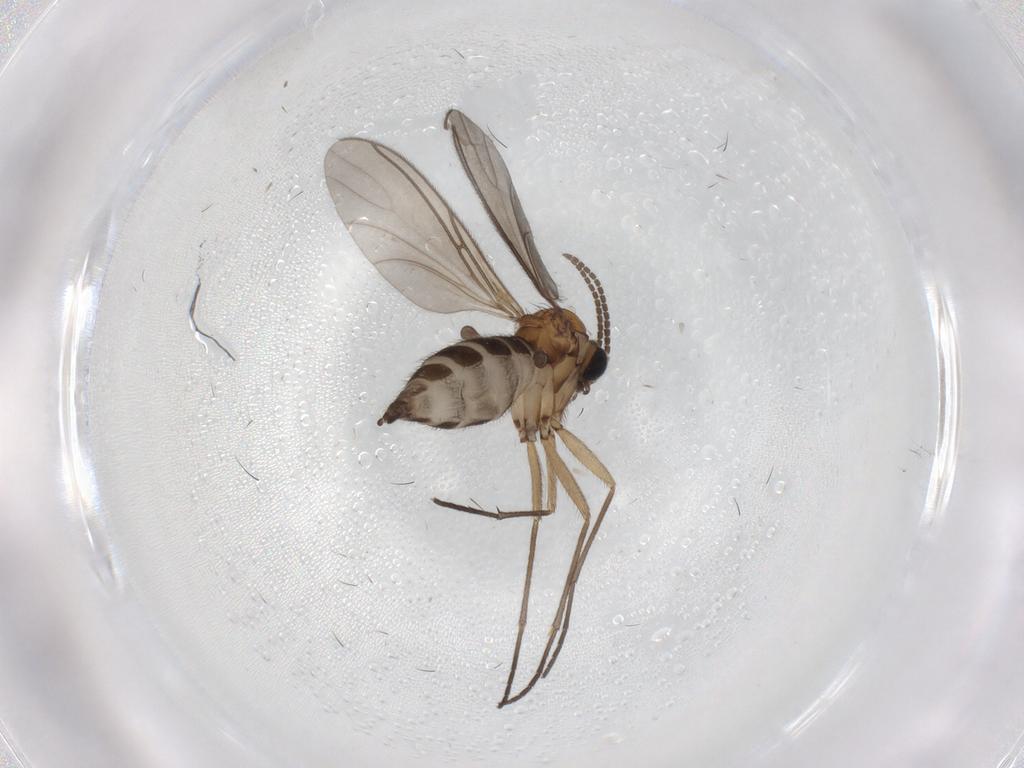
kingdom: Animalia
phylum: Arthropoda
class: Insecta
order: Diptera
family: Sciaridae
